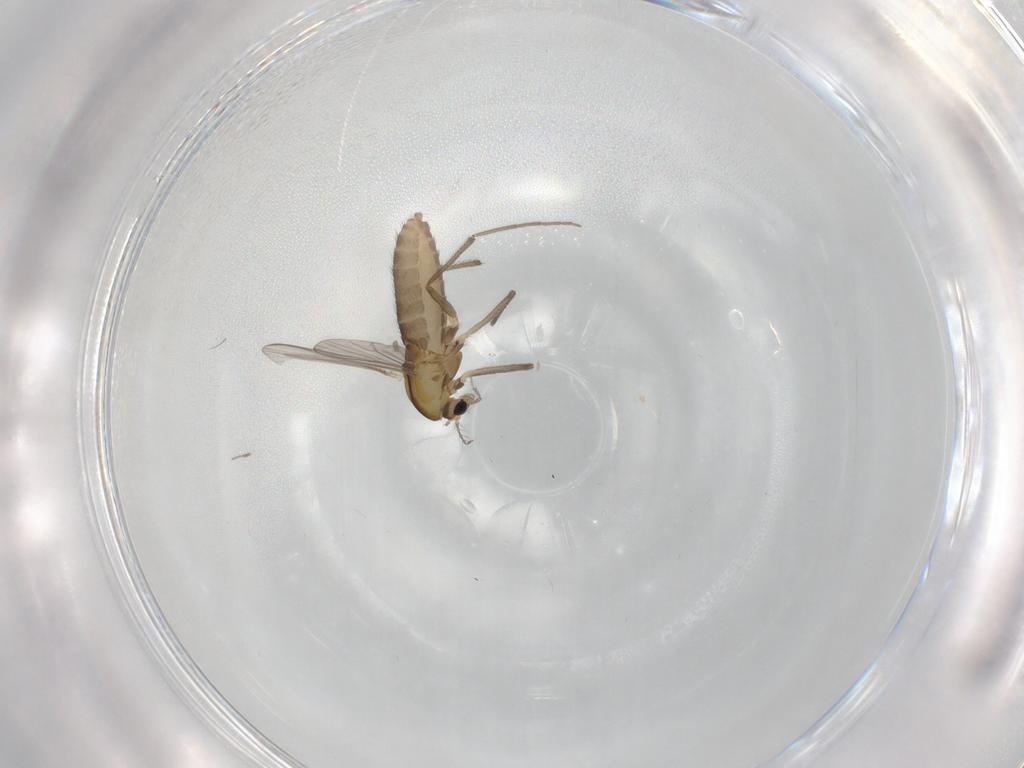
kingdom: Animalia
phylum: Arthropoda
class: Insecta
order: Diptera
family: Chironomidae
